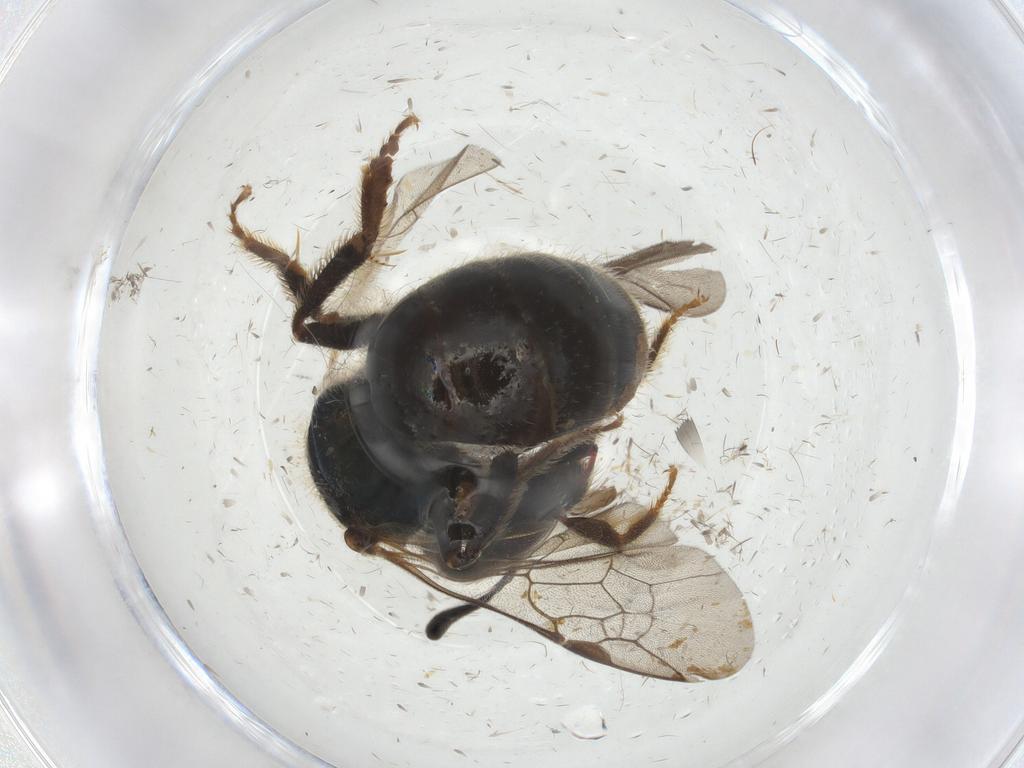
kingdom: Animalia
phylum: Arthropoda
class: Insecta
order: Hymenoptera
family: Halictidae
